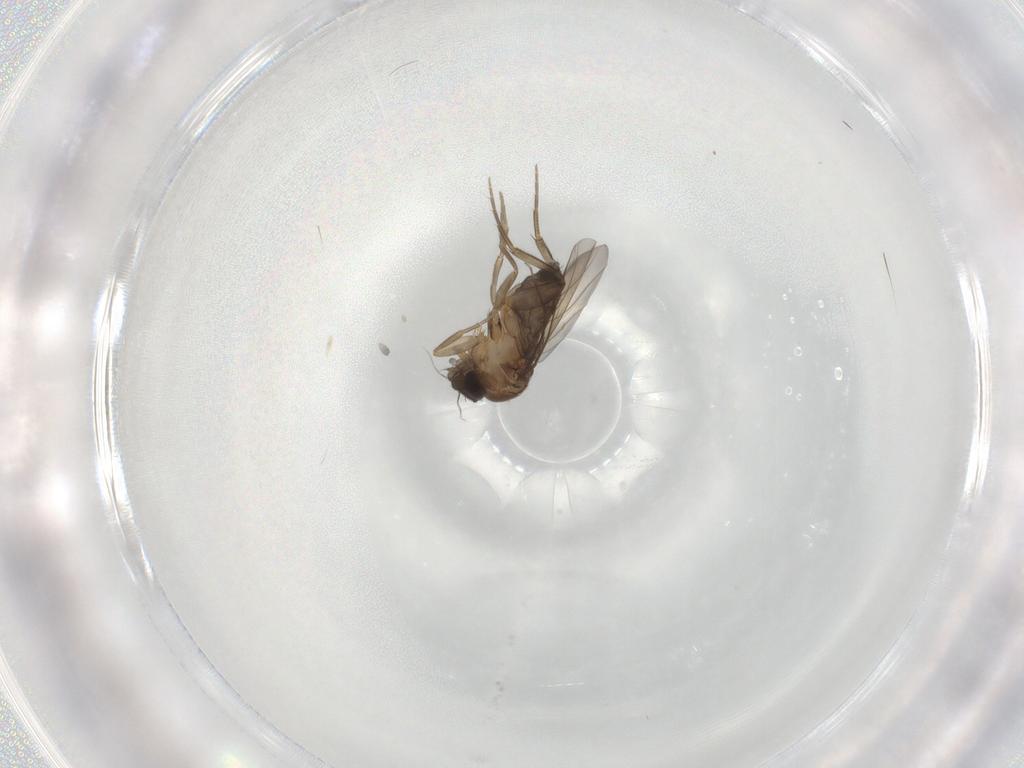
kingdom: Animalia
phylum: Arthropoda
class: Insecta
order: Diptera
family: Phoridae
